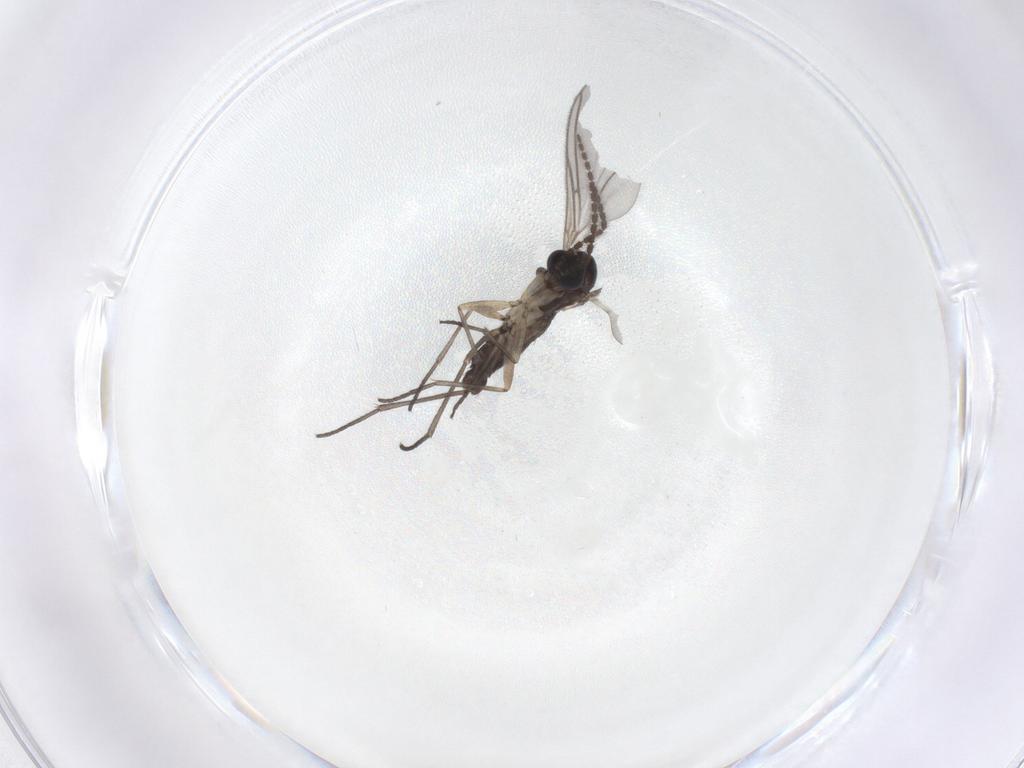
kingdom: Animalia
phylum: Arthropoda
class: Insecta
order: Diptera
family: Sciaridae
